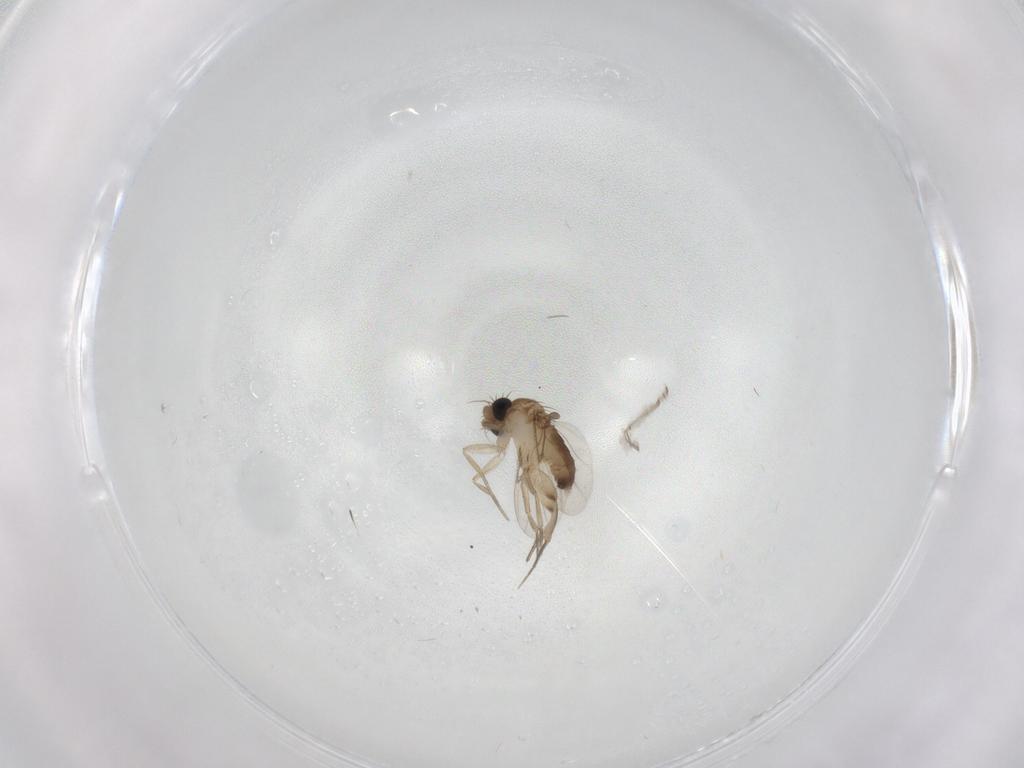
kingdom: Animalia
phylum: Arthropoda
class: Insecta
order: Diptera
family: Phoridae
